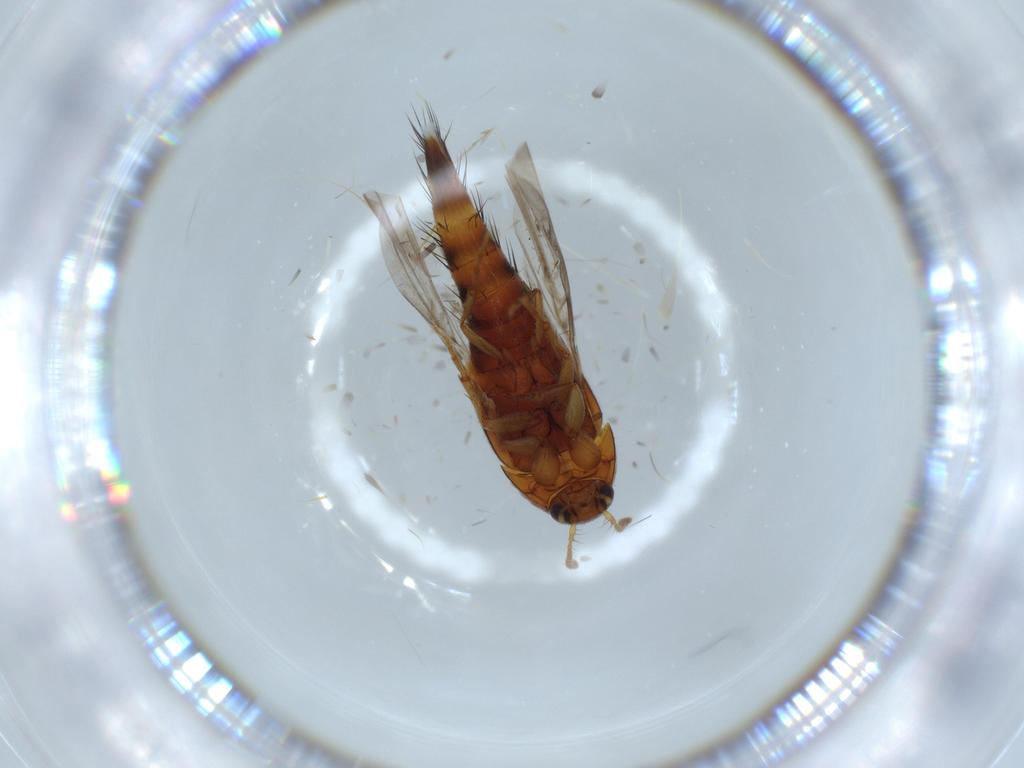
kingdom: Animalia
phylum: Arthropoda
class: Insecta
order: Coleoptera
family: Staphylinidae
